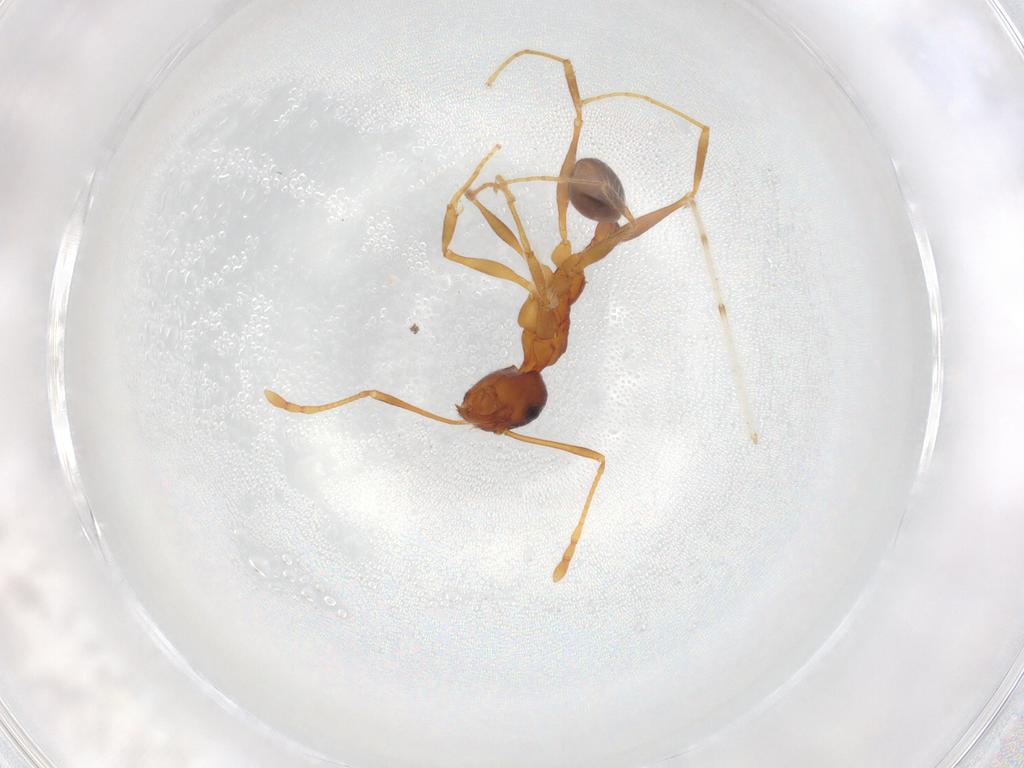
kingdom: Animalia
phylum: Arthropoda
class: Insecta
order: Hymenoptera
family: Formicidae
